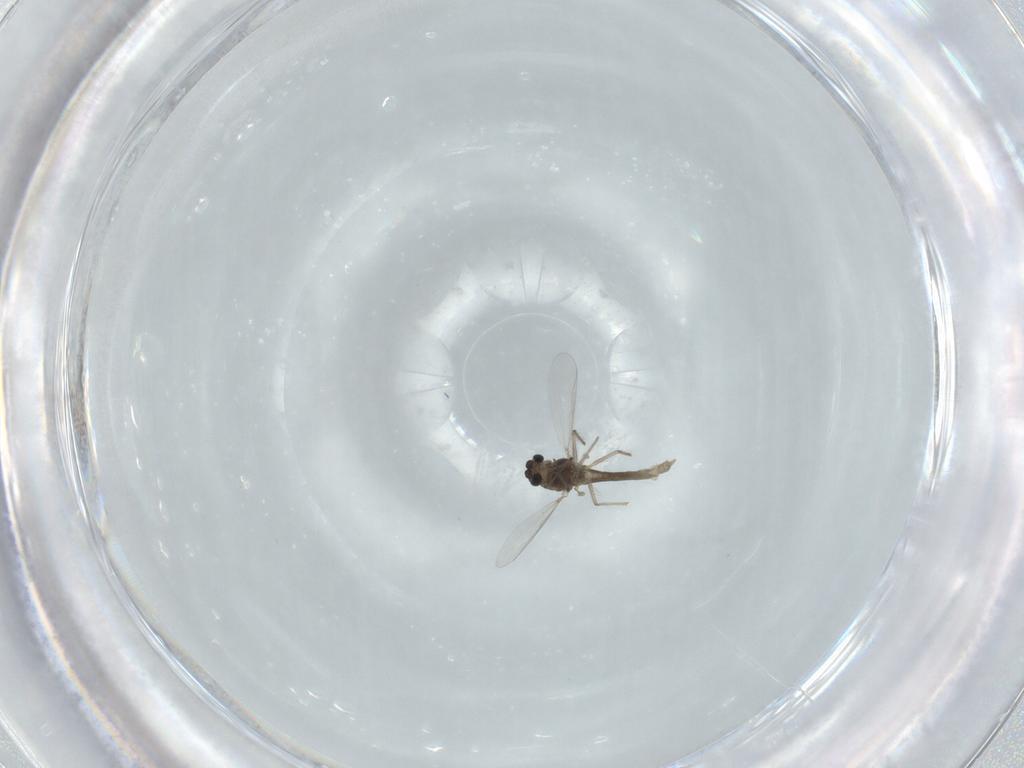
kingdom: Animalia
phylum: Arthropoda
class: Insecta
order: Diptera
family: Chironomidae
